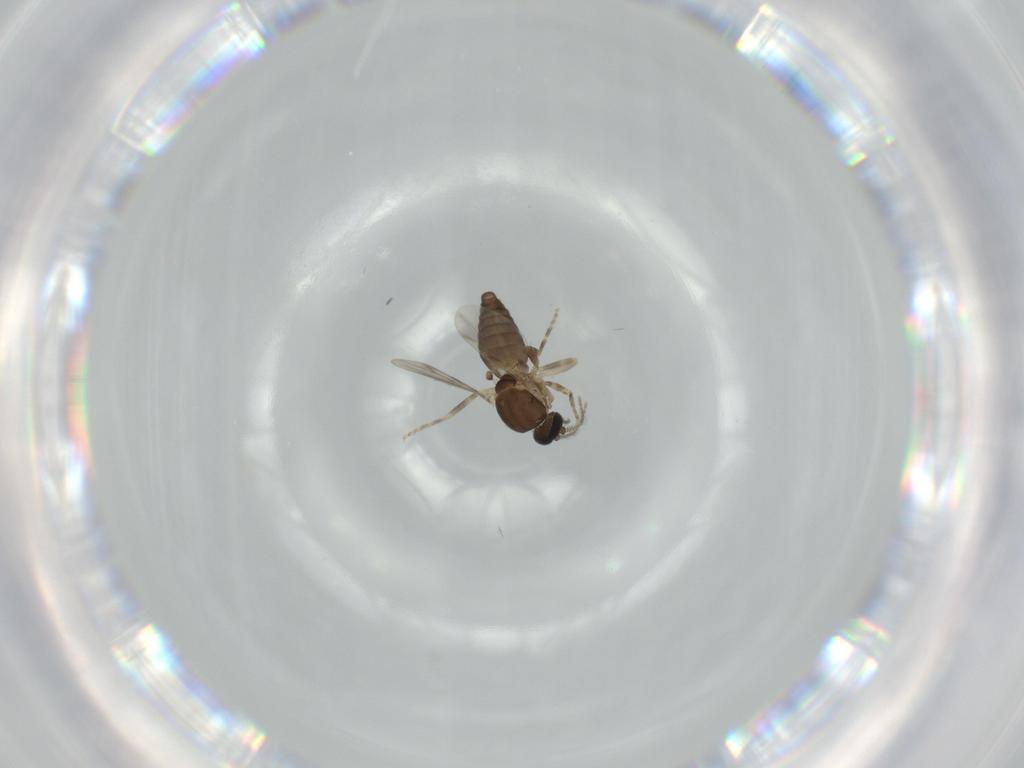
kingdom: Animalia
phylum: Arthropoda
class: Insecta
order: Diptera
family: Ceratopogonidae
